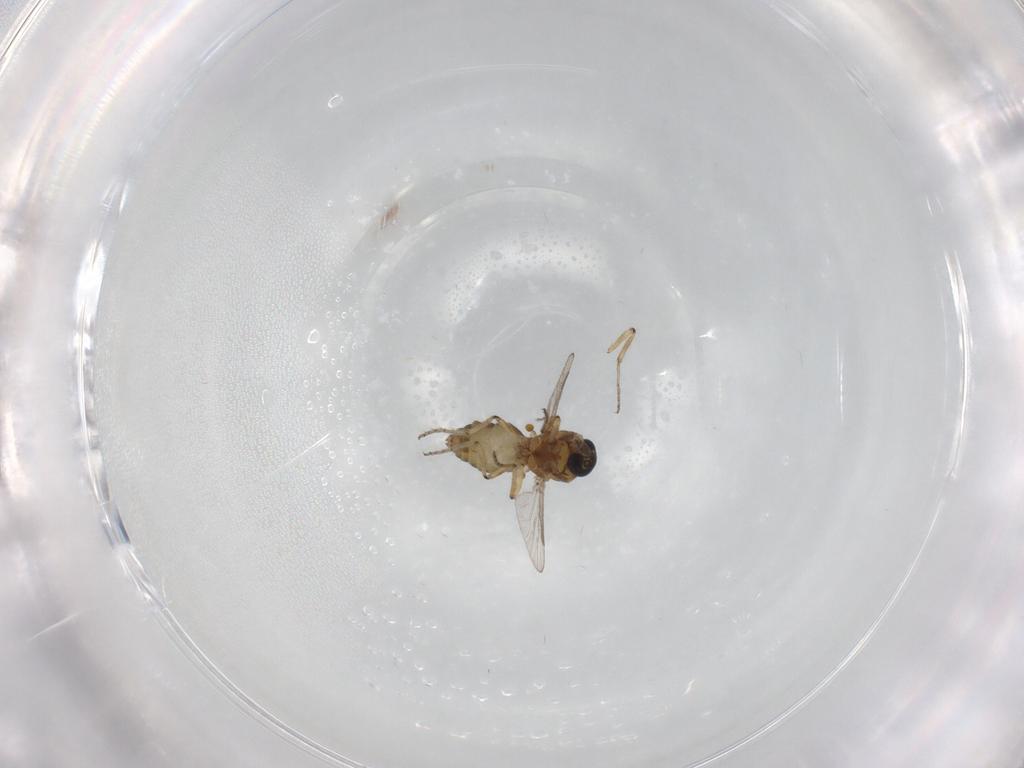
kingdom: Animalia
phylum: Arthropoda
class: Insecta
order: Diptera
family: Ceratopogonidae
